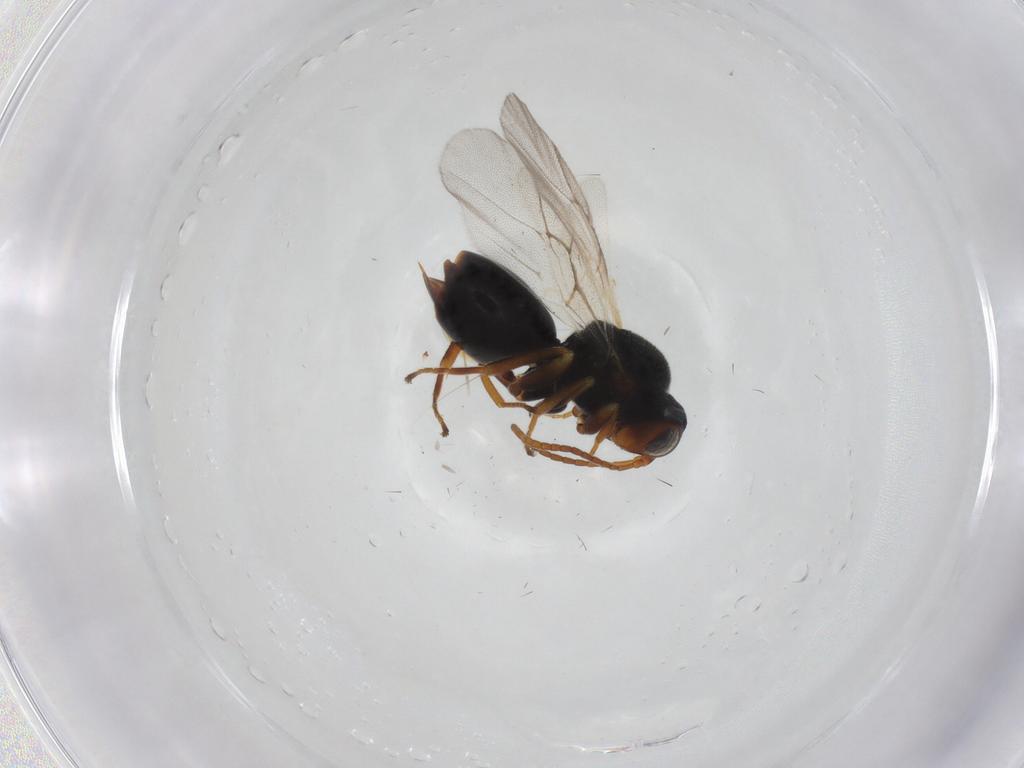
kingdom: Animalia
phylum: Arthropoda
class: Insecta
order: Hymenoptera
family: Cynipidae
